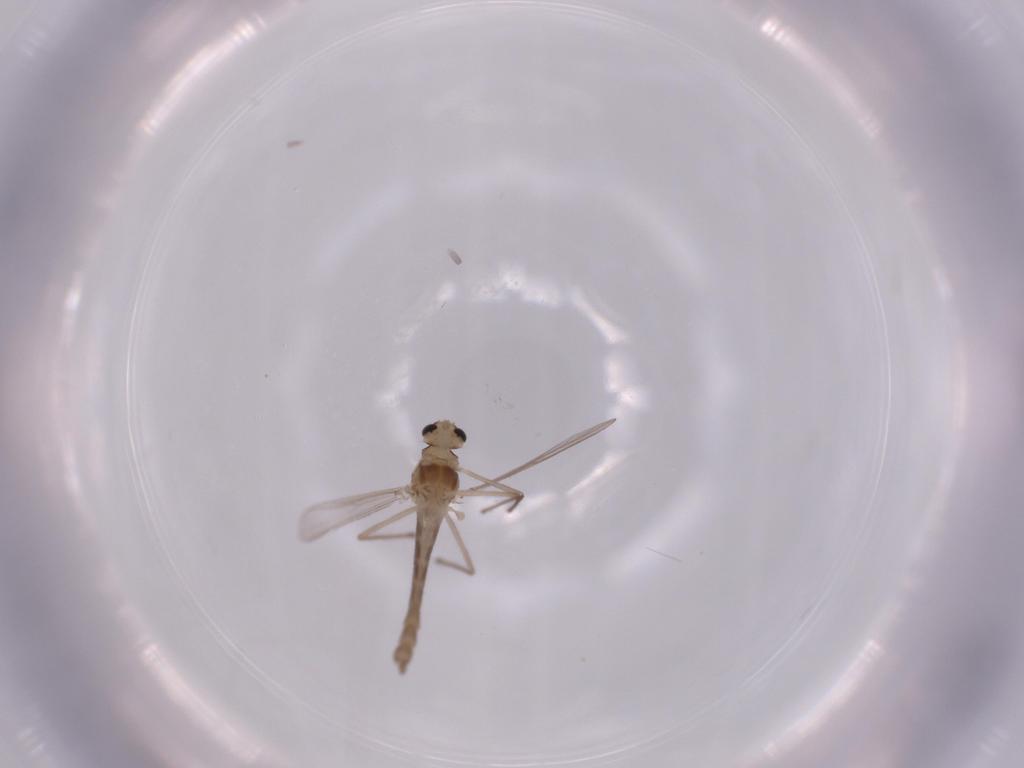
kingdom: Animalia
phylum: Arthropoda
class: Insecta
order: Diptera
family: Chironomidae
